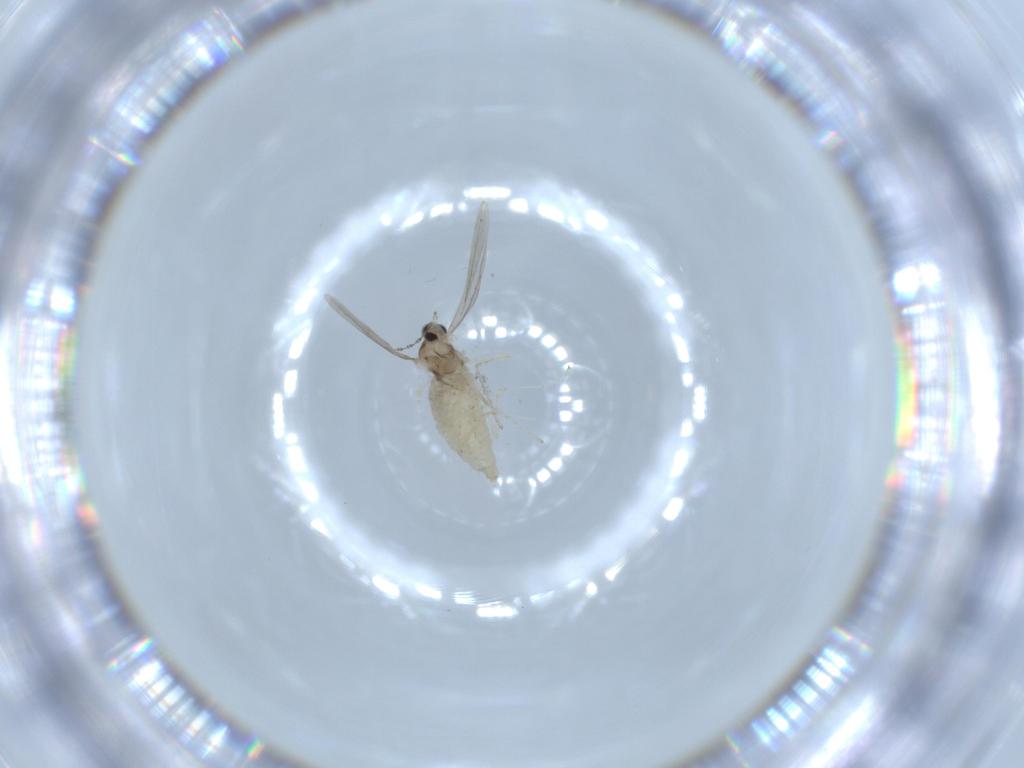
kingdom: Animalia
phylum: Arthropoda
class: Insecta
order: Diptera
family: Cecidomyiidae
